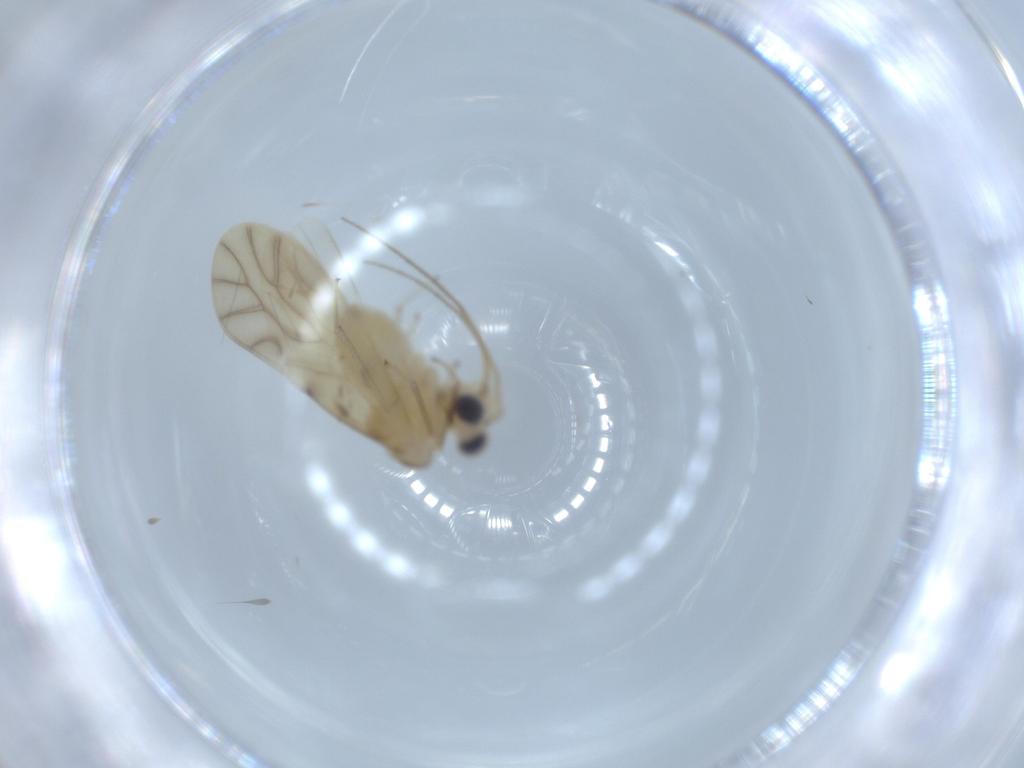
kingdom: Animalia
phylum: Arthropoda
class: Insecta
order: Psocodea
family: Caeciliusidae
